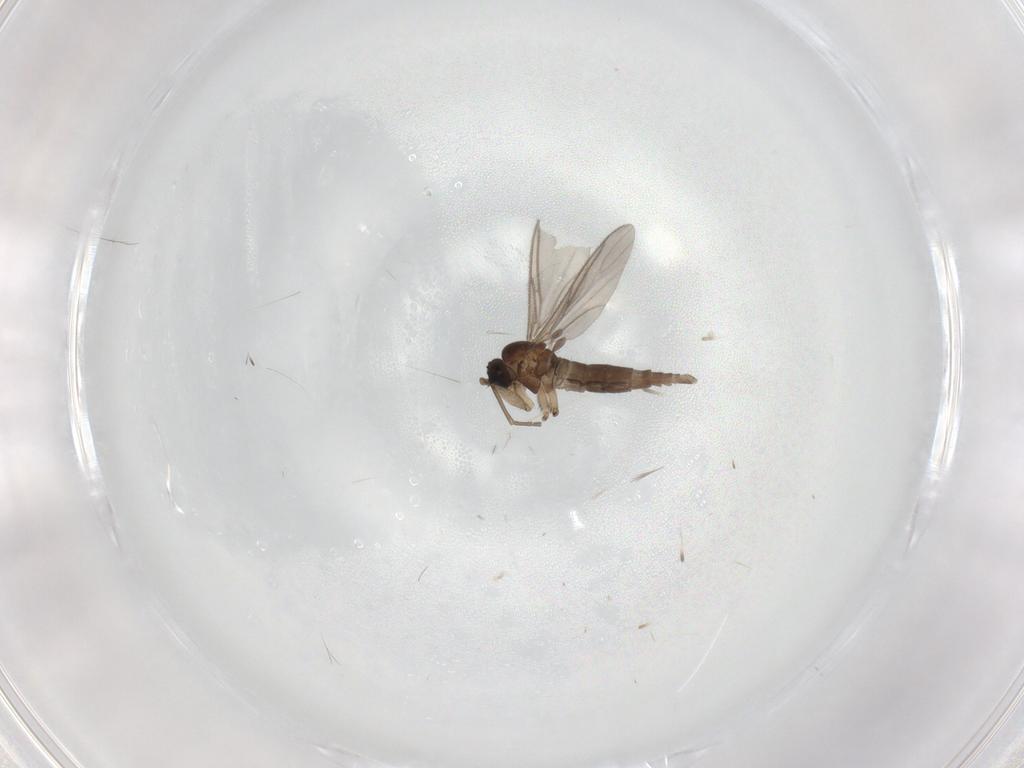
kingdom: Animalia
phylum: Arthropoda
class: Insecta
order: Diptera
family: Sciaridae
